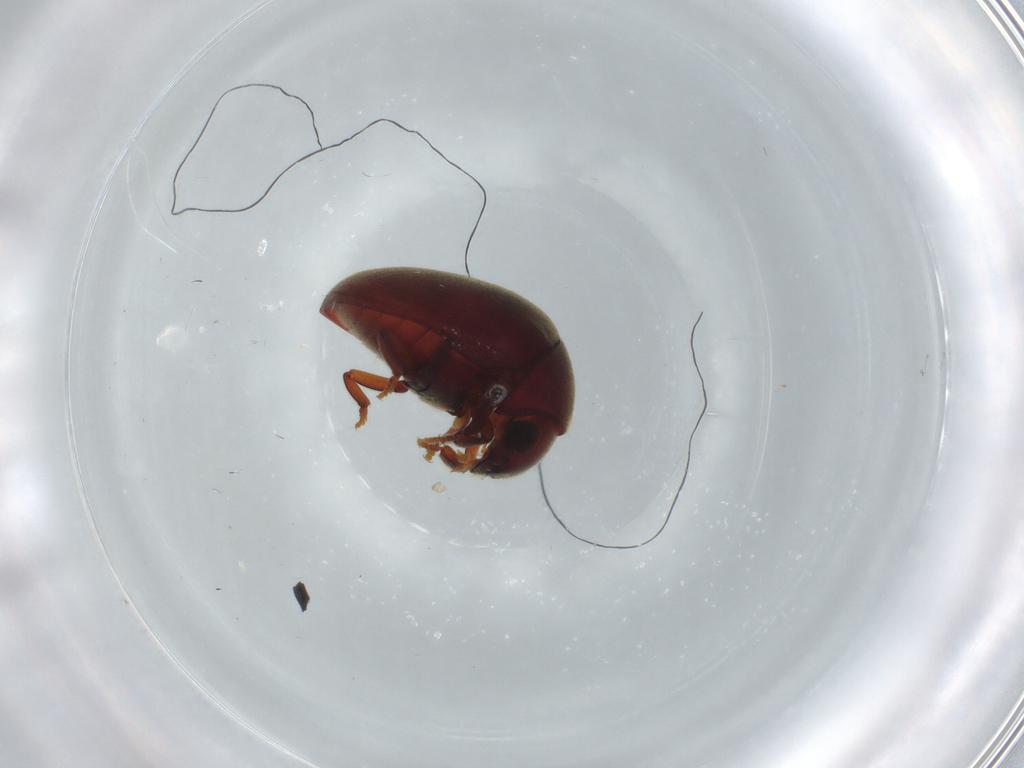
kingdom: Animalia
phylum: Arthropoda
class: Insecta
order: Coleoptera
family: Ptinidae
